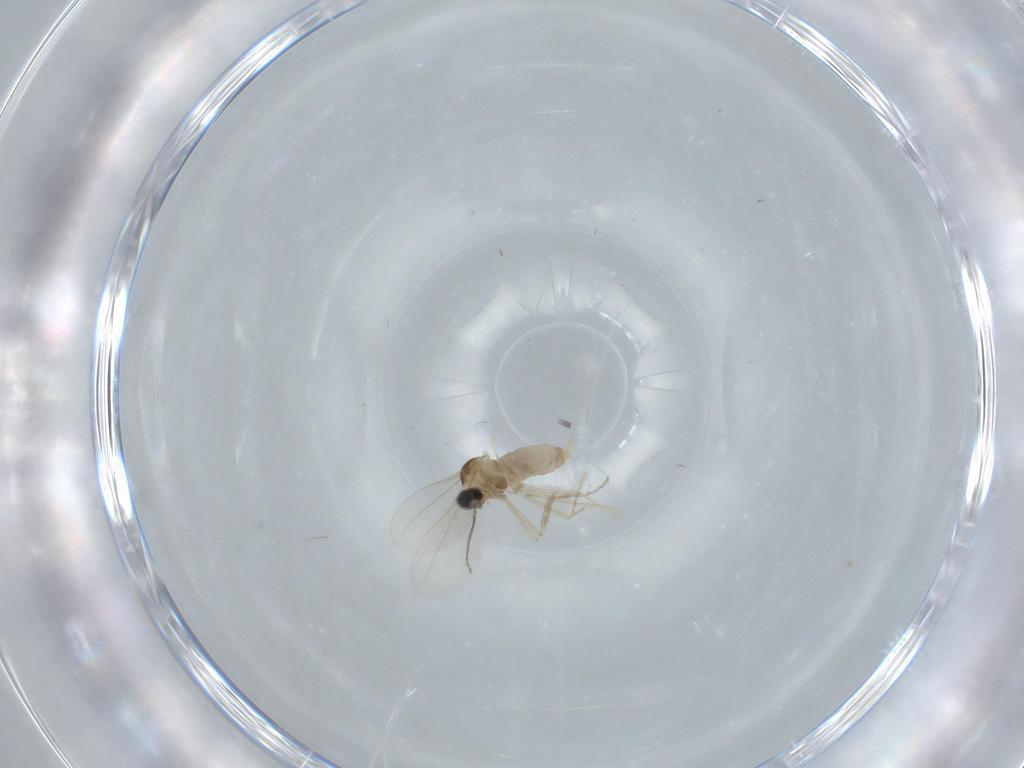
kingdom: Animalia
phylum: Arthropoda
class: Insecta
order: Diptera
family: Cecidomyiidae
